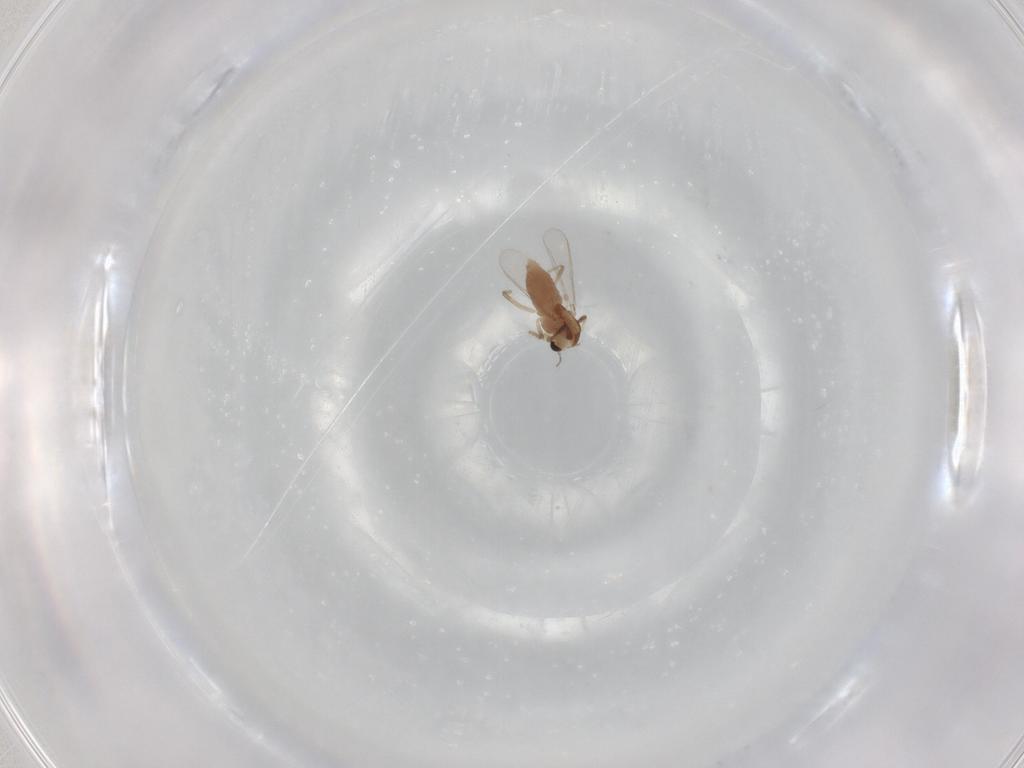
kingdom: Animalia
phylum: Arthropoda
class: Insecta
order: Diptera
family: Chironomidae
